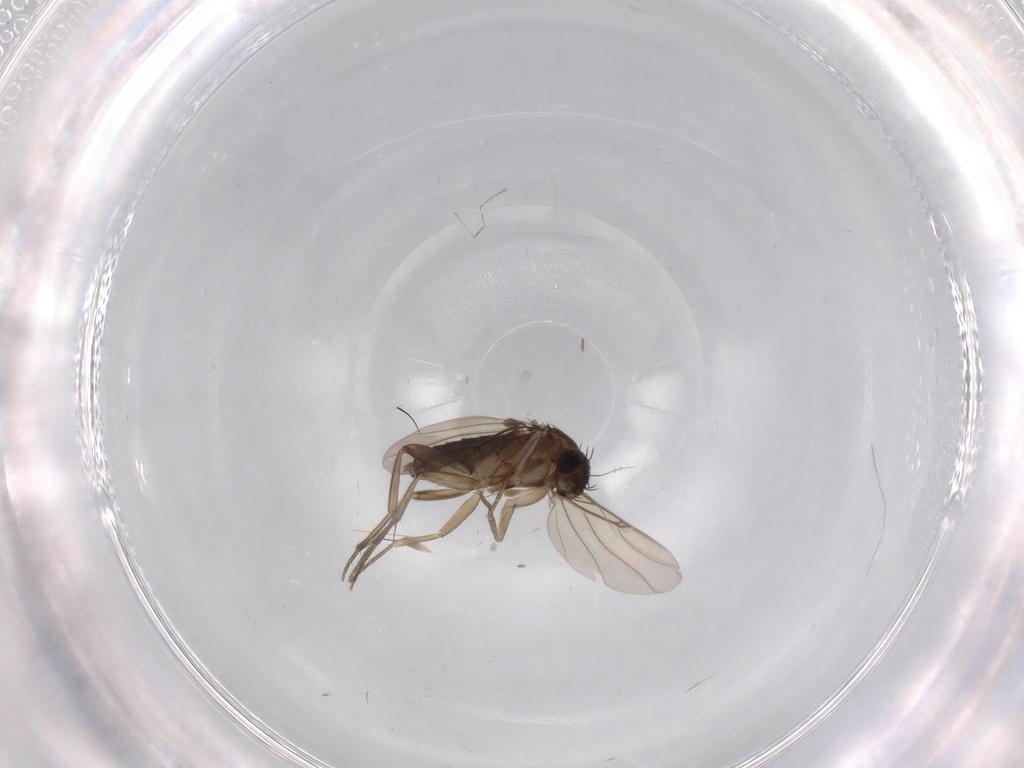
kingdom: Animalia
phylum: Arthropoda
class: Insecta
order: Diptera
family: Phoridae
